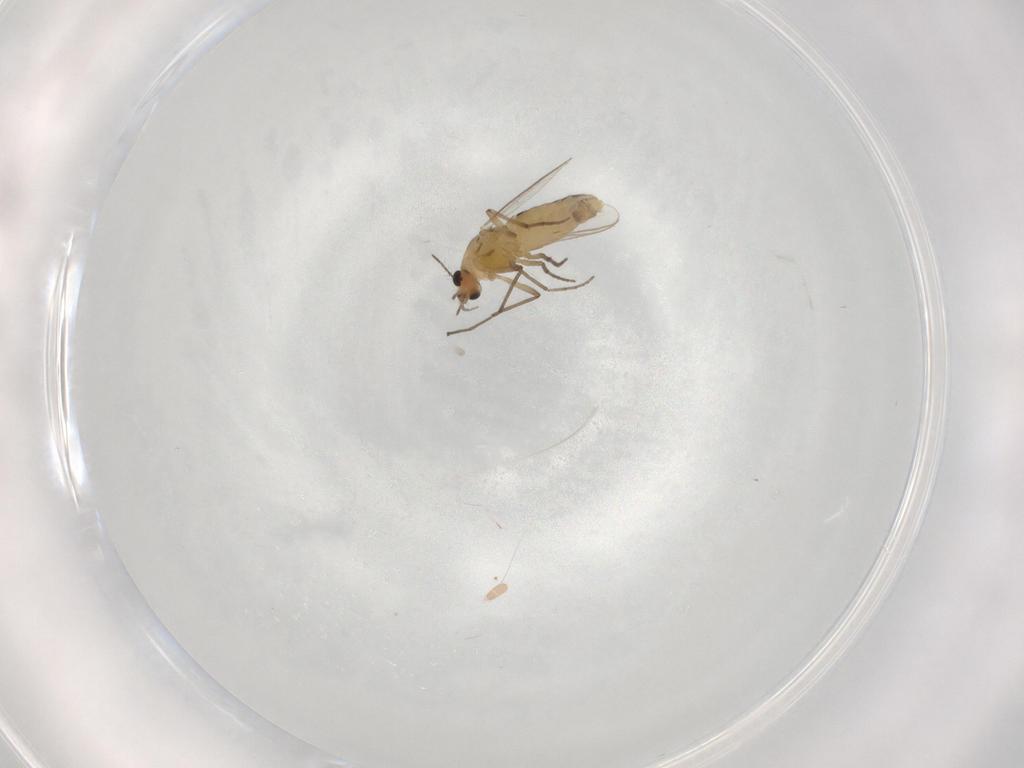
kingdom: Animalia
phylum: Arthropoda
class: Insecta
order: Diptera
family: Chironomidae
